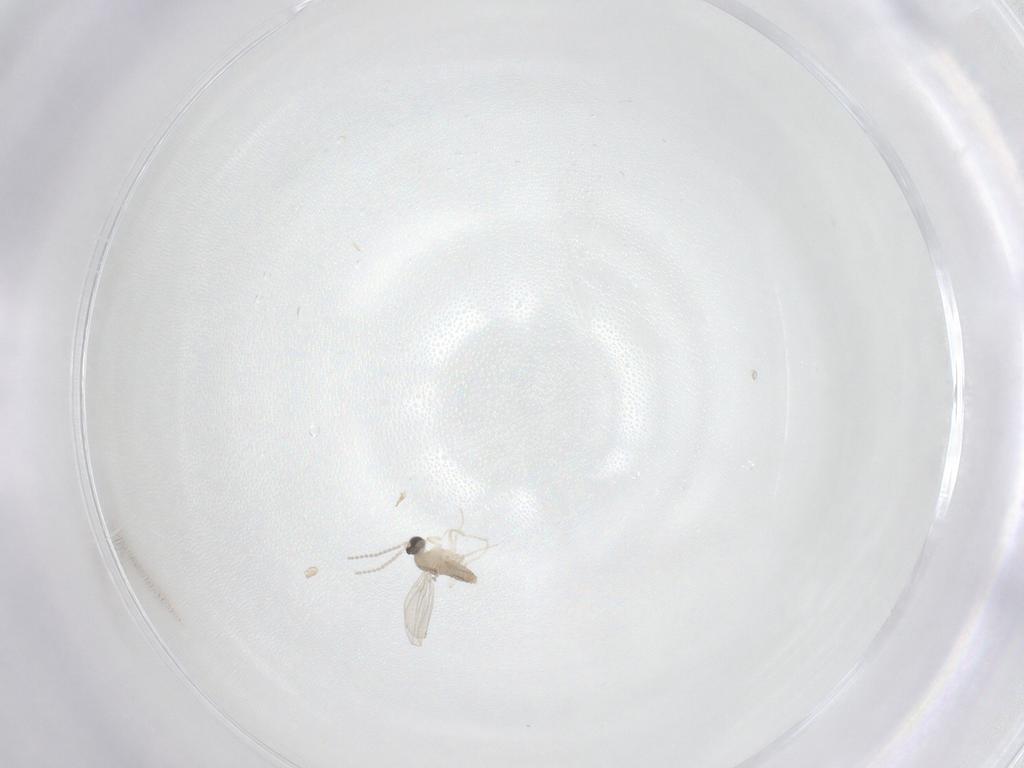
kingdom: Animalia
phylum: Arthropoda
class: Insecta
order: Diptera
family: Cecidomyiidae
